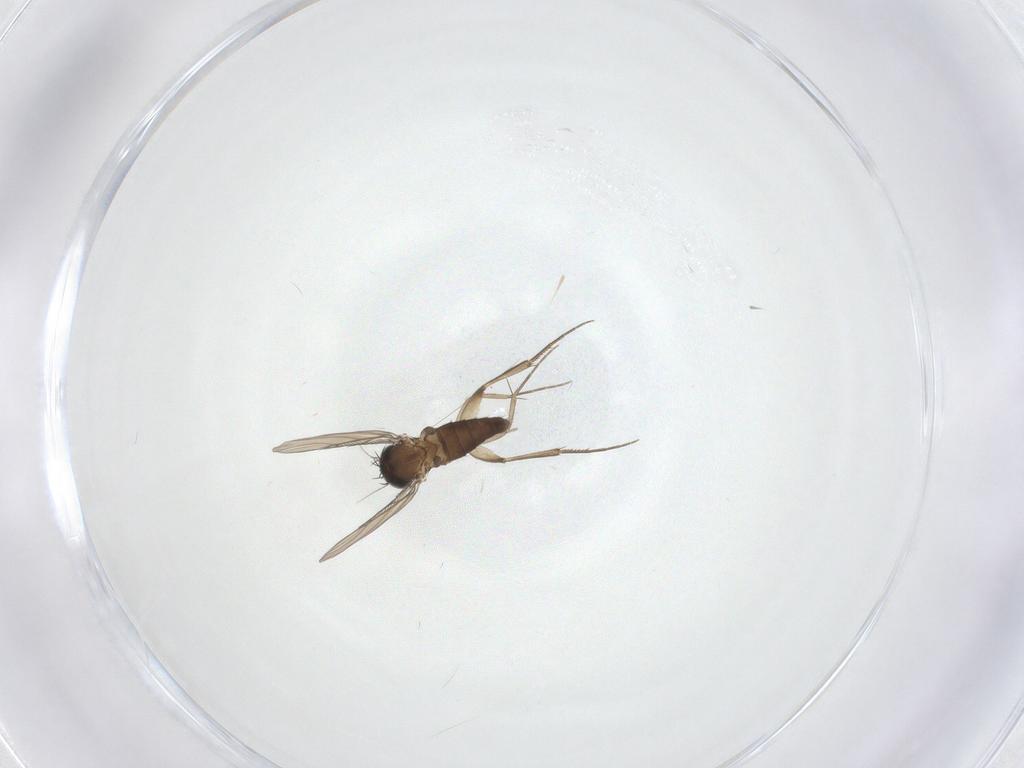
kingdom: Animalia
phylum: Arthropoda
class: Insecta
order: Diptera
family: Phoridae
